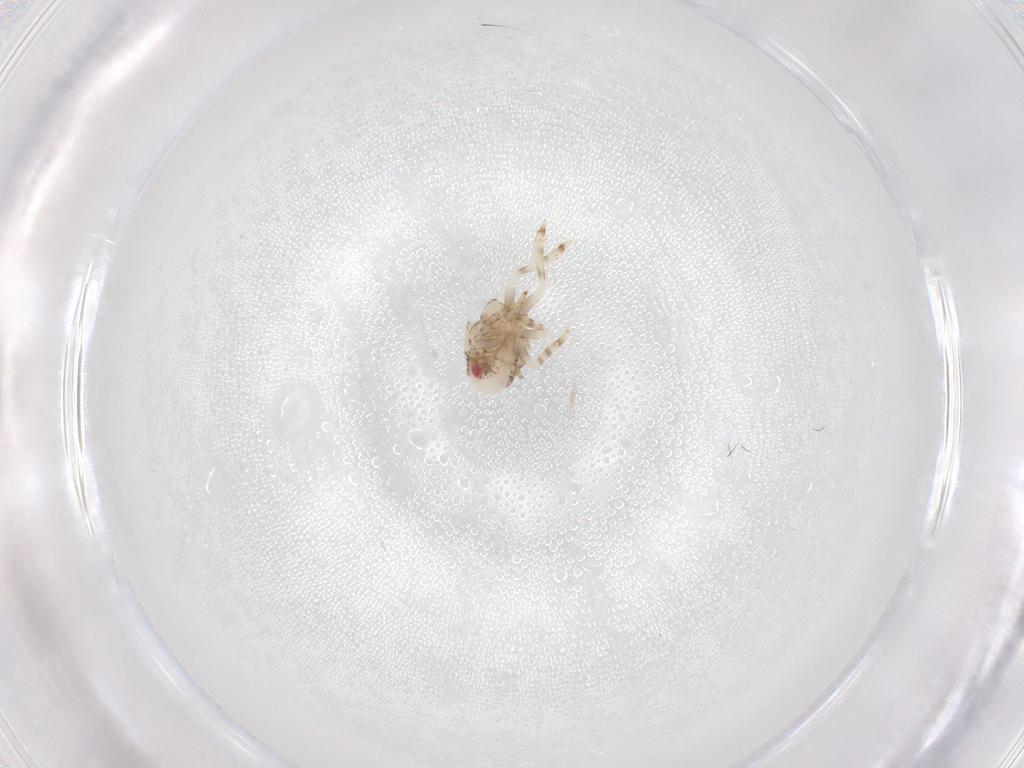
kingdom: Animalia
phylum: Arthropoda
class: Insecta
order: Hemiptera
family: Acanaloniidae
